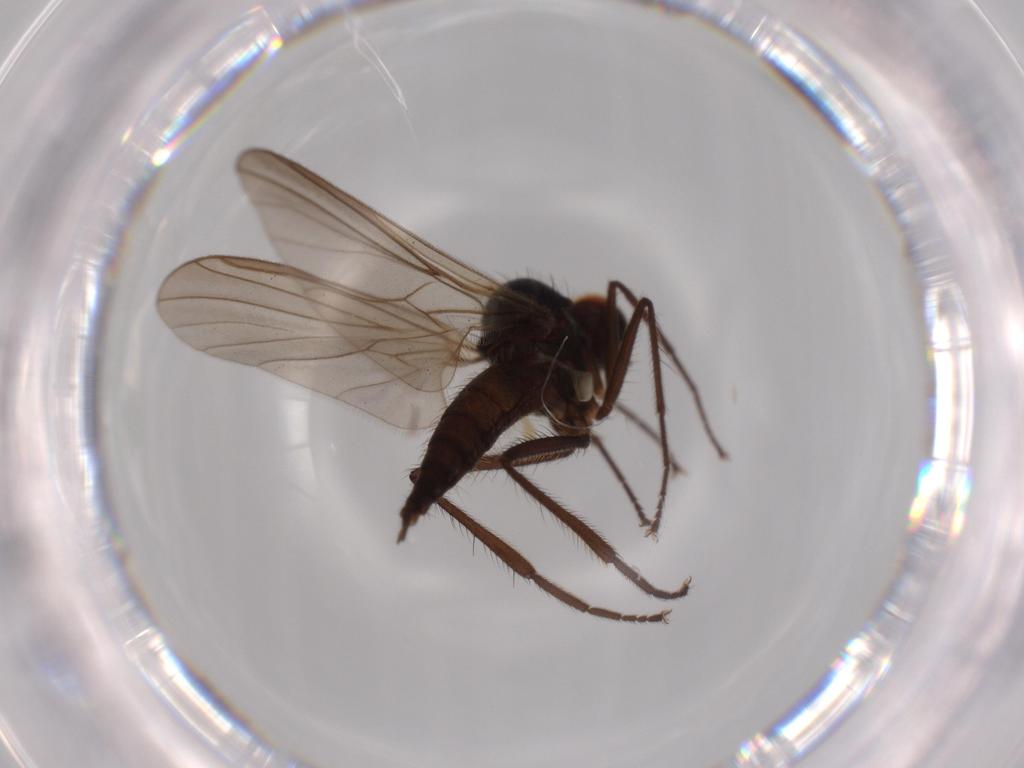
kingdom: Animalia
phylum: Arthropoda
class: Insecta
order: Diptera
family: Hybotidae
